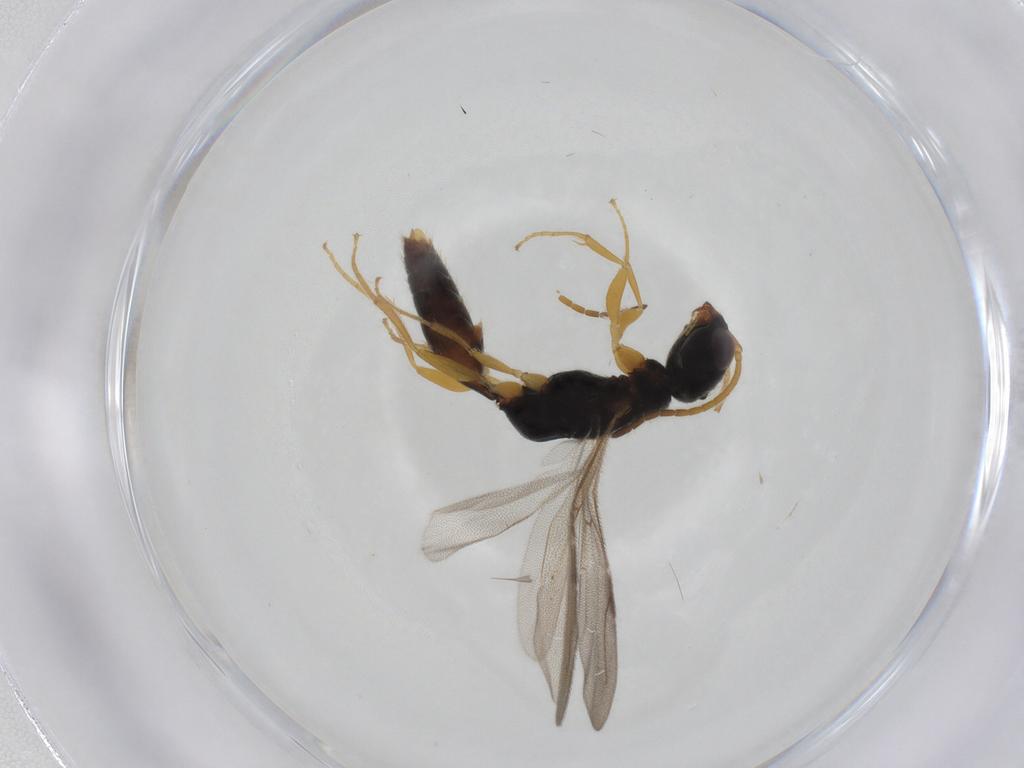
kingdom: Animalia
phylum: Arthropoda
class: Insecta
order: Hymenoptera
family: Bethylidae
